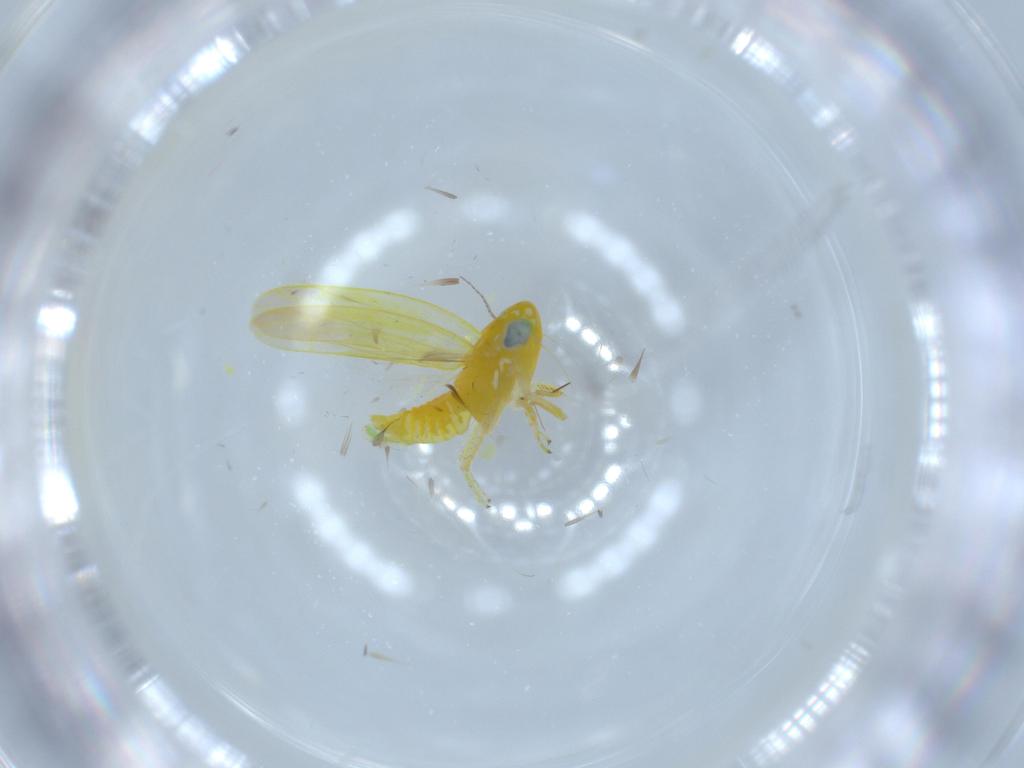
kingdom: Animalia
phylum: Arthropoda
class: Insecta
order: Hemiptera
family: Cicadellidae
